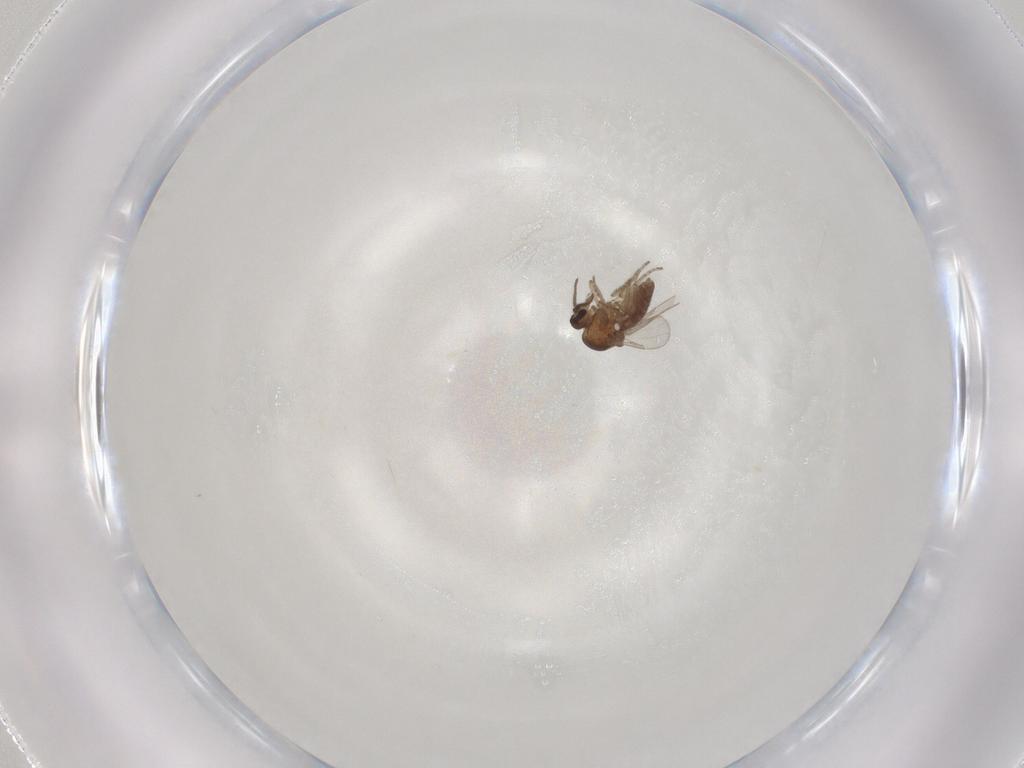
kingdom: Animalia
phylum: Arthropoda
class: Insecta
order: Diptera
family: Ceratopogonidae
